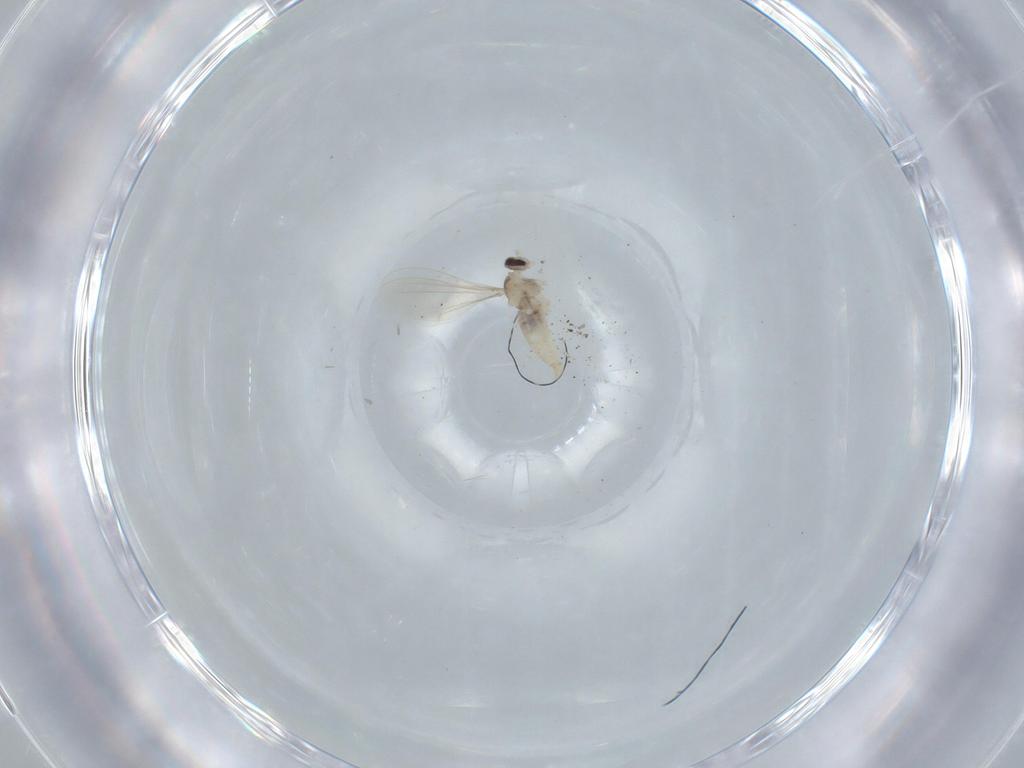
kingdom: Animalia
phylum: Arthropoda
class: Insecta
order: Diptera
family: Cecidomyiidae
